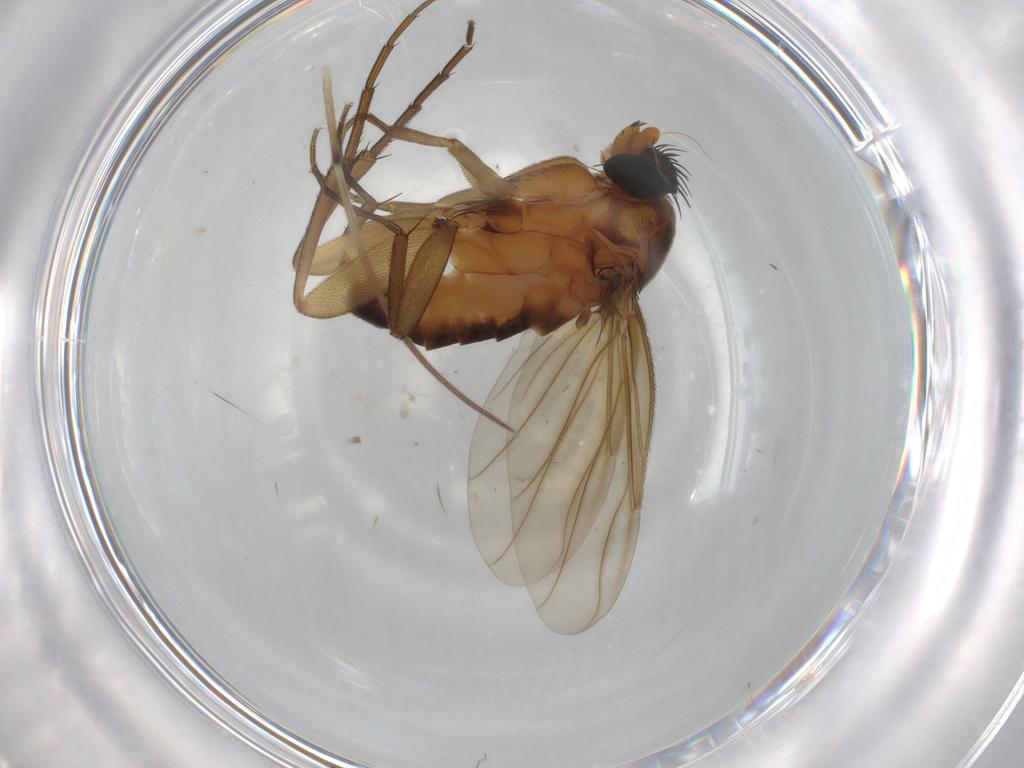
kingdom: Animalia
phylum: Arthropoda
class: Insecta
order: Diptera
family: Phoridae
